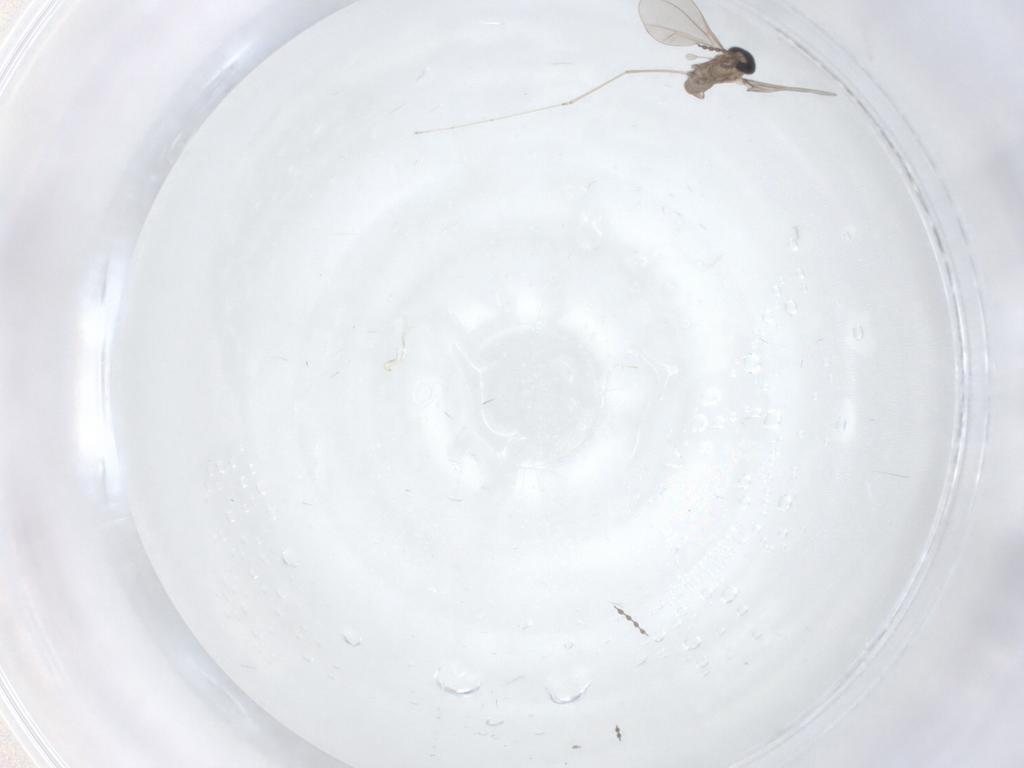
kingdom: Animalia
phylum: Arthropoda
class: Insecta
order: Diptera
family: Cecidomyiidae
